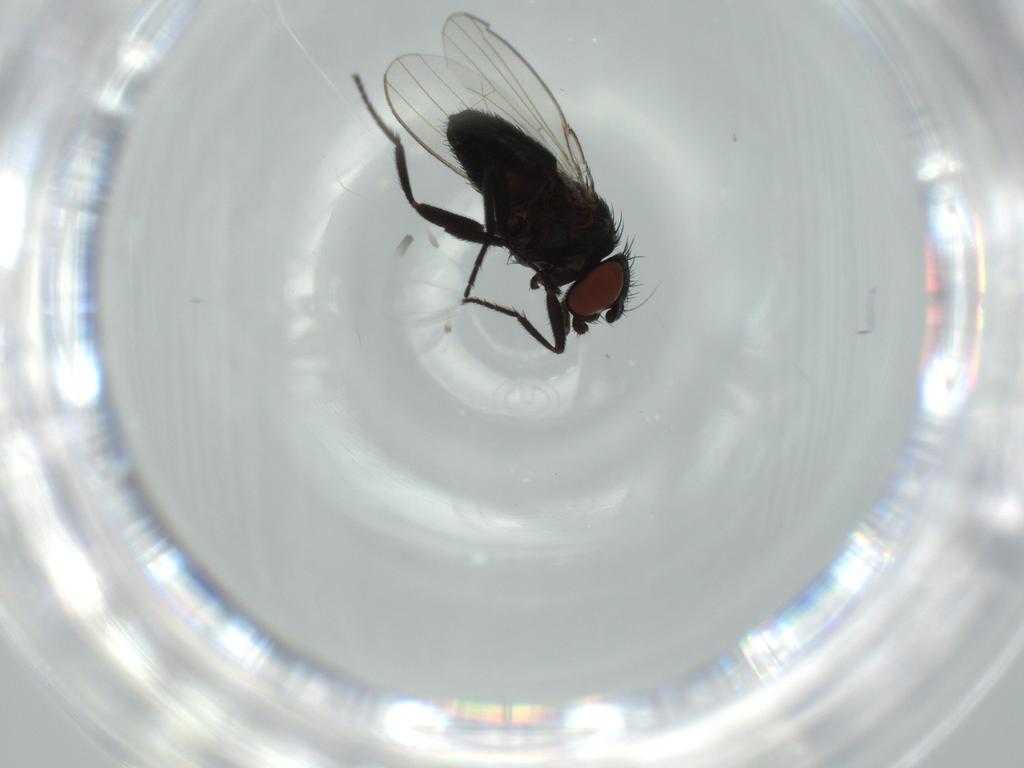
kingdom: Animalia
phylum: Arthropoda
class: Insecta
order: Diptera
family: Milichiidae
